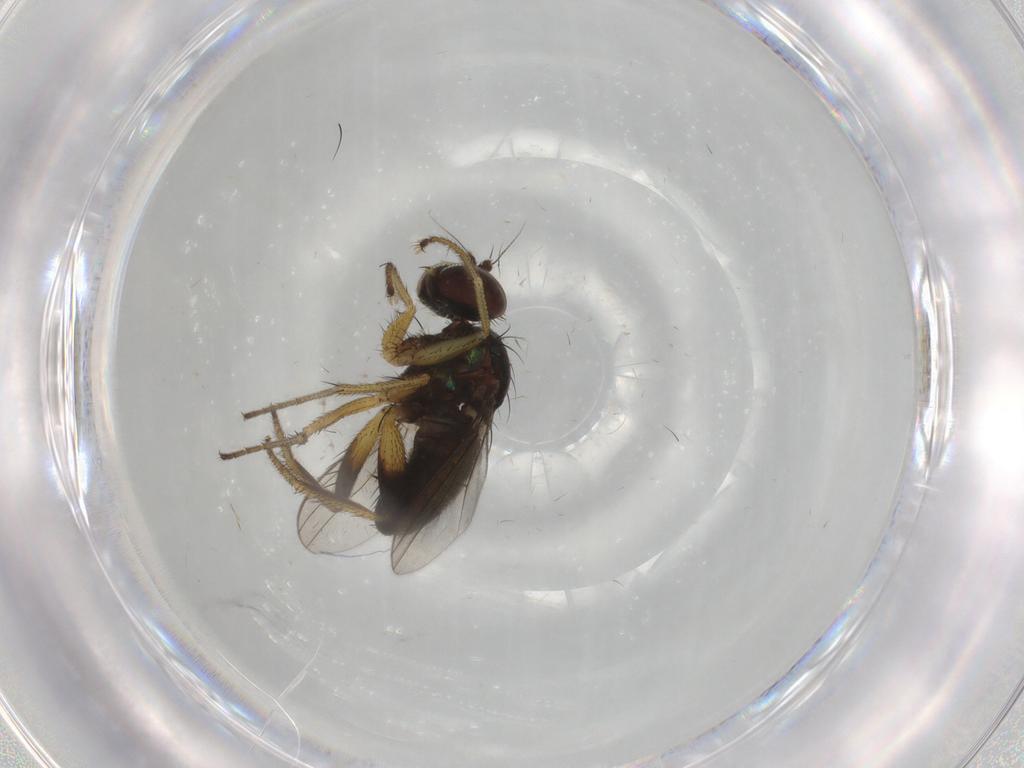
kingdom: Animalia
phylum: Arthropoda
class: Insecta
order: Diptera
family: Dolichopodidae
